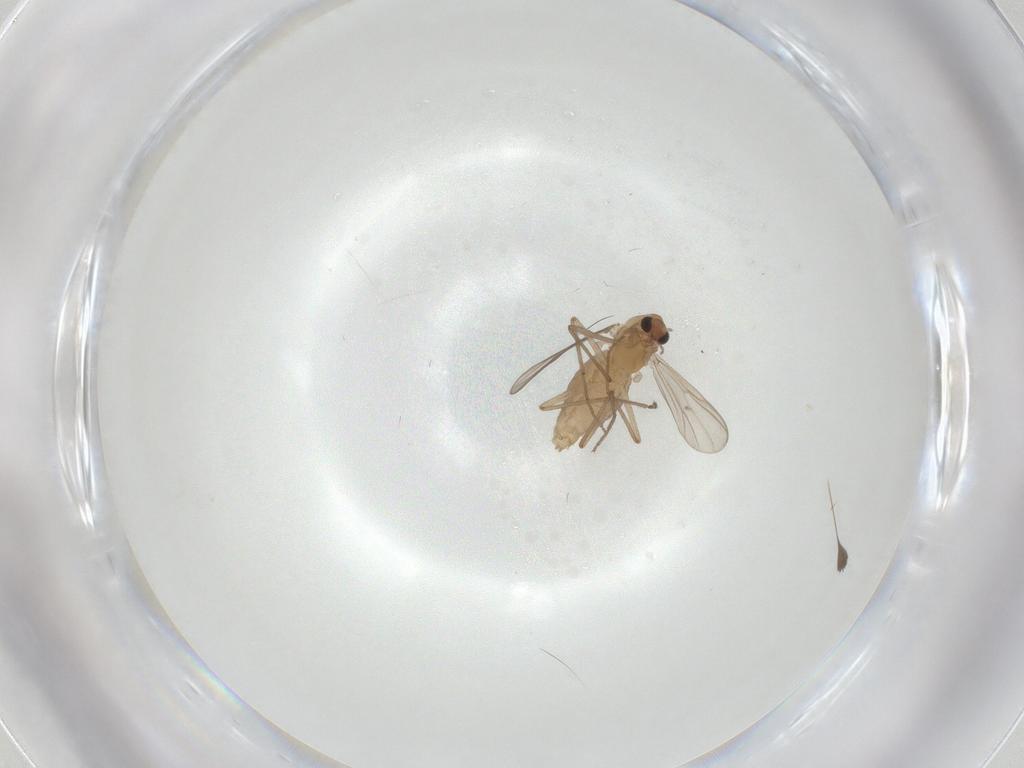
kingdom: Animalia
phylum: Arthropoda
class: Insecta
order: Diptera
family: Chironomidae
